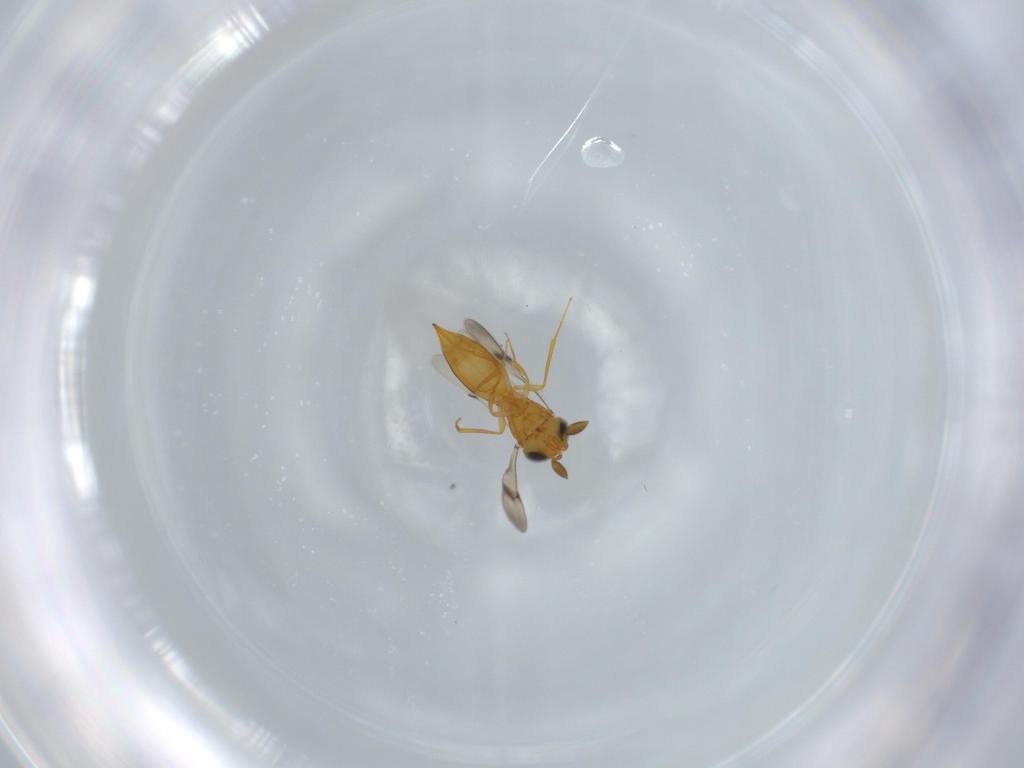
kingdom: Animalia
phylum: Arthropoda
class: Insecta
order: Hymenoptera
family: Scelionidae
